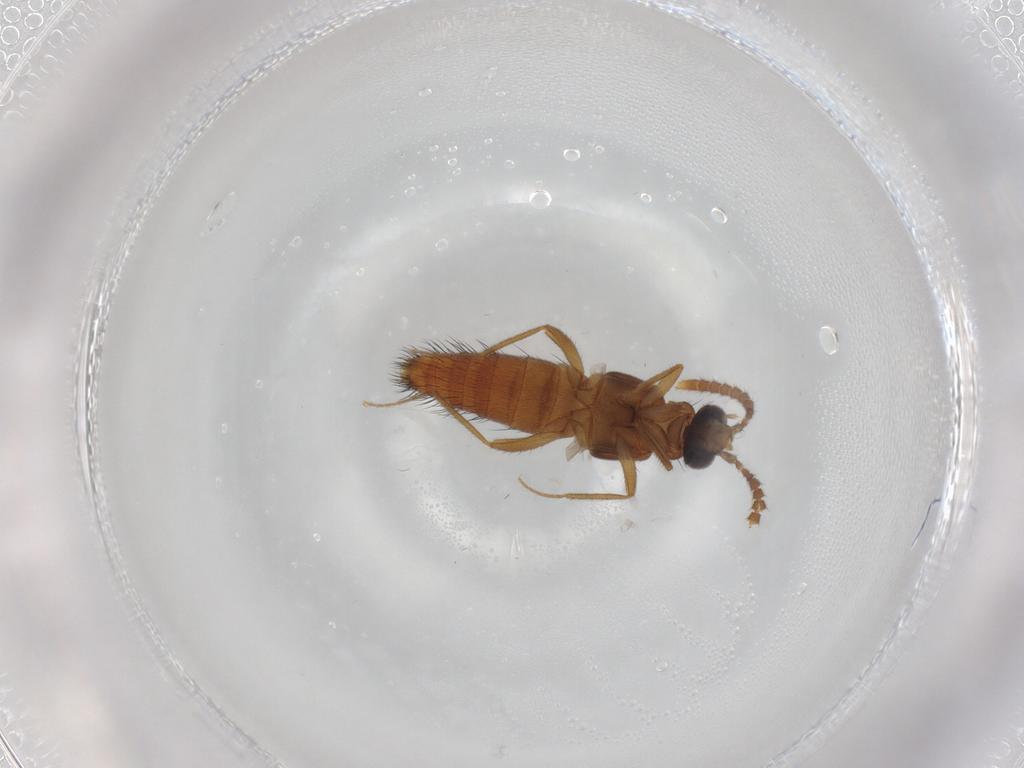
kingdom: Animalia
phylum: Arthropoda
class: Insecta
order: Coleoptera
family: Staphylinidae
